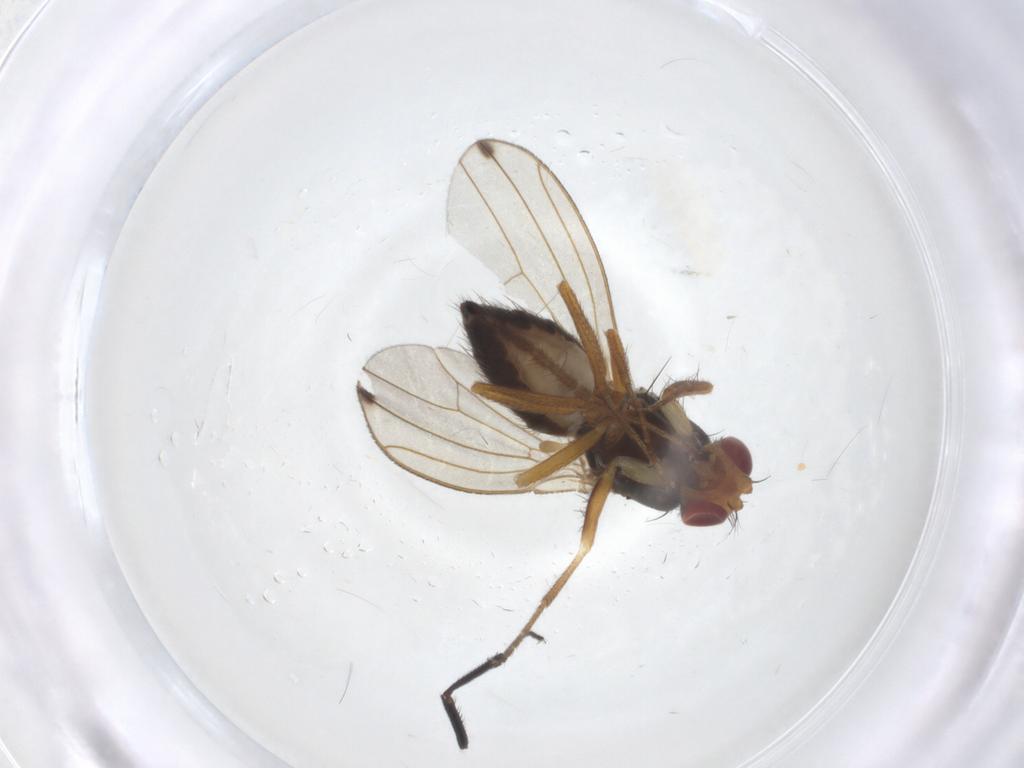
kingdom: Animalia
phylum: Arthropoda
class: Insecta
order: Diptera
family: Drosophilidae
